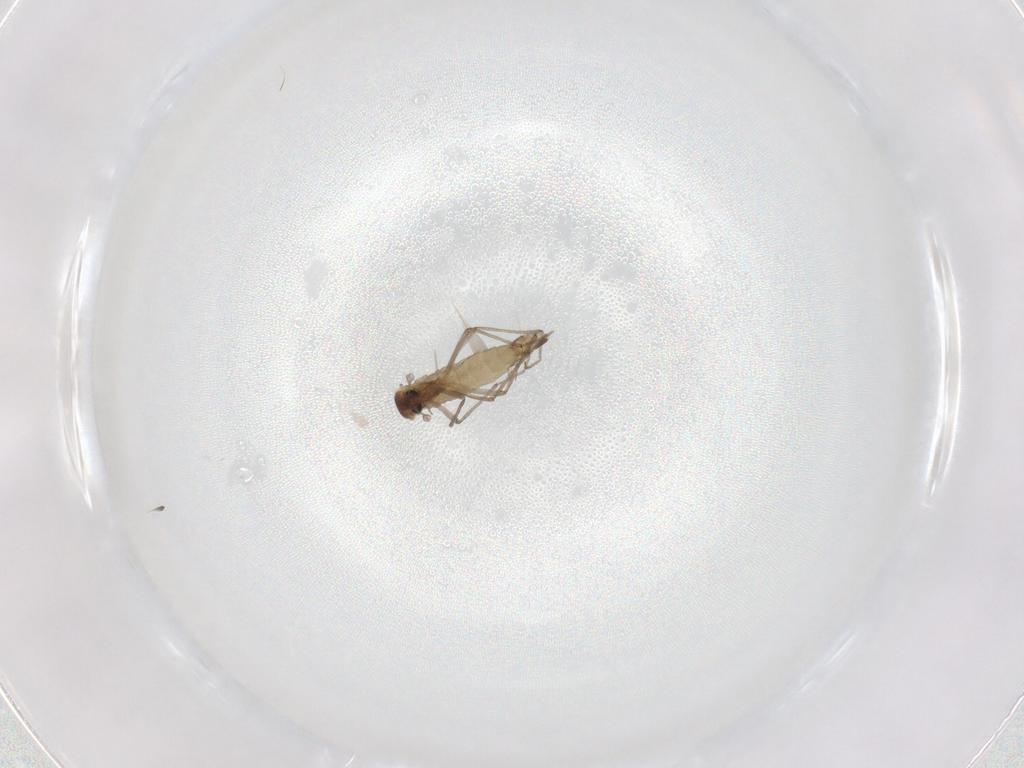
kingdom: Animalia
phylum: Arthropoda
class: Insecta
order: Diptera
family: Chironomidae
